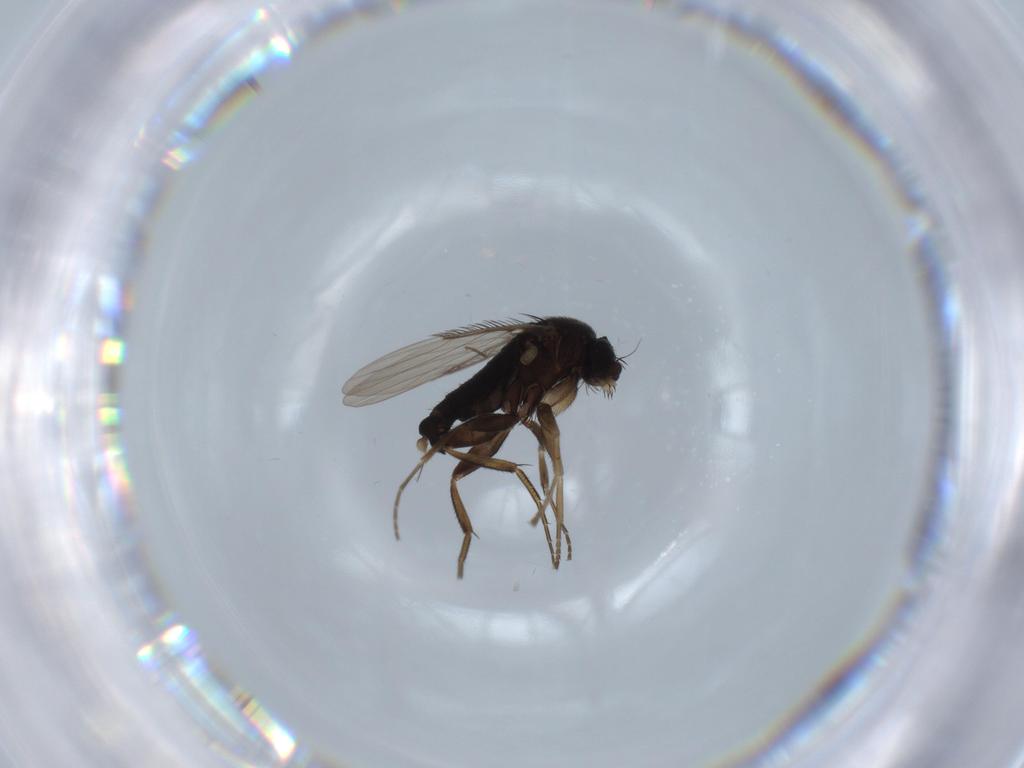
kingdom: Animalia
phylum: Arthropoda
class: Insecta
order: Diptera
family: Phoridae
